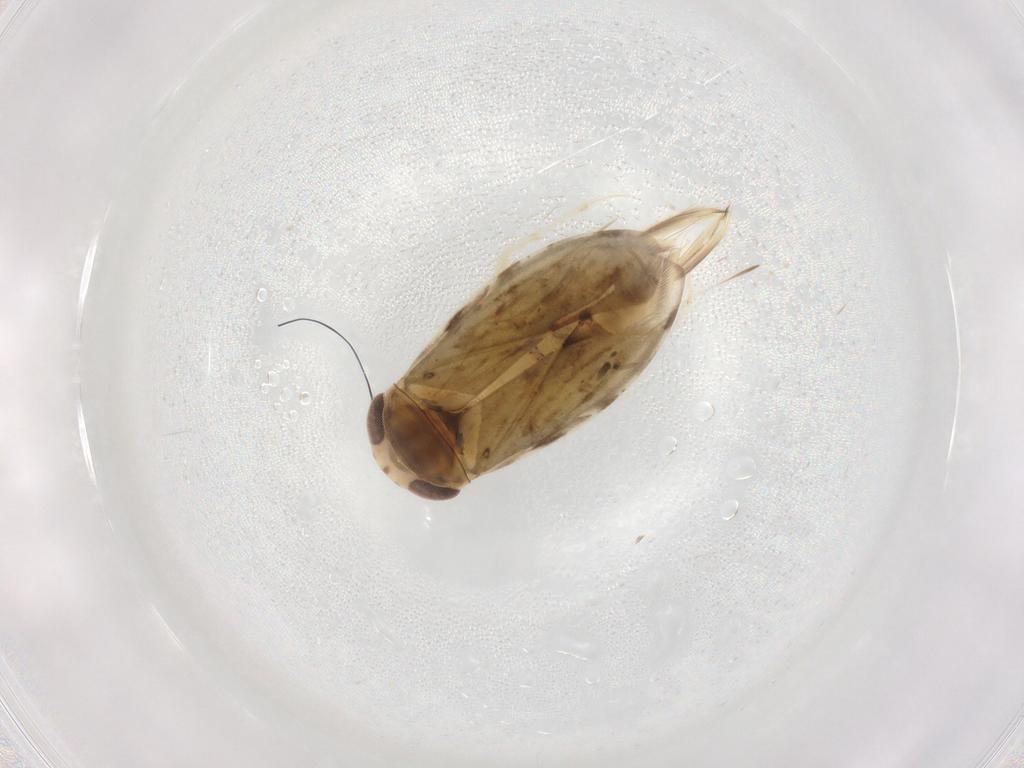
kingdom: Animalia
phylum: Arthropoda
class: Insecta
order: Hemiptera
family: Corixidae
